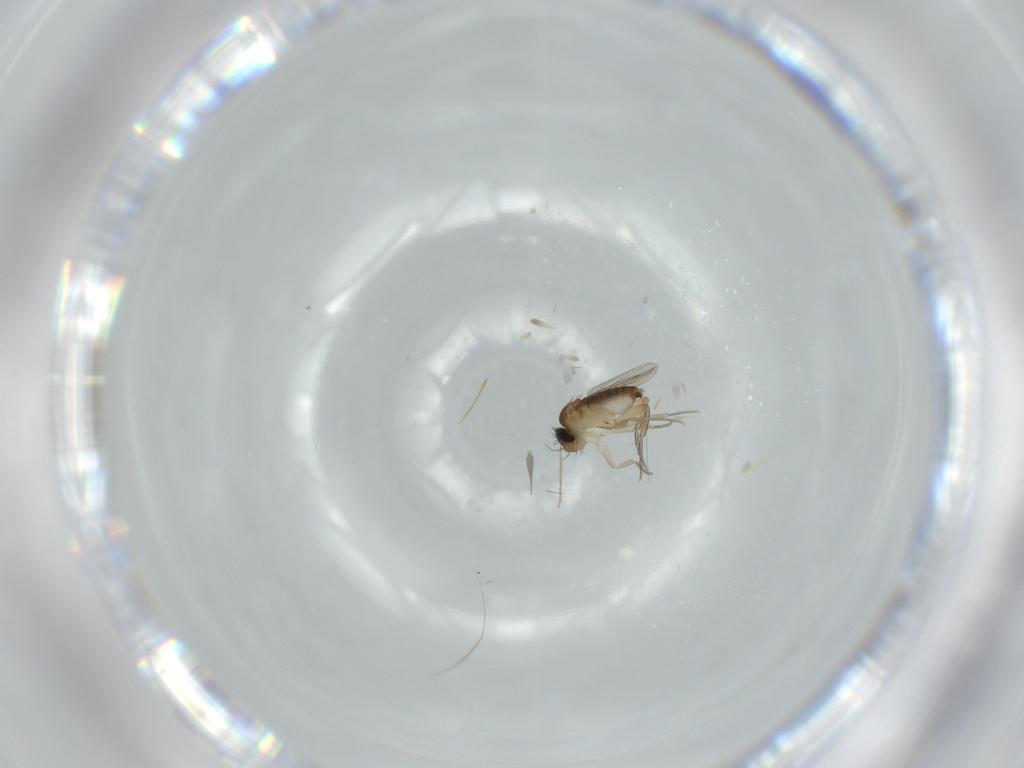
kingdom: Animalia
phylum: Arthropoda
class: Insecta
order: Diptera
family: Phoridae
